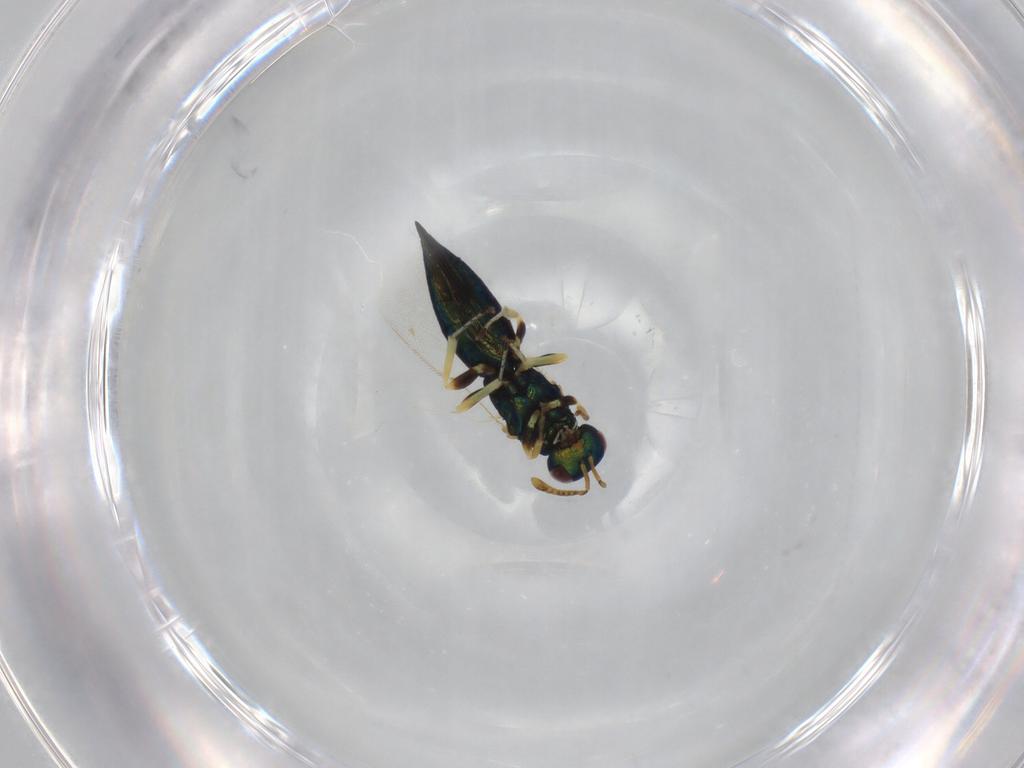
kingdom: Animalia
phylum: Arthropoda
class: Insecta
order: Hymenoptera
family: Pteromalidae
